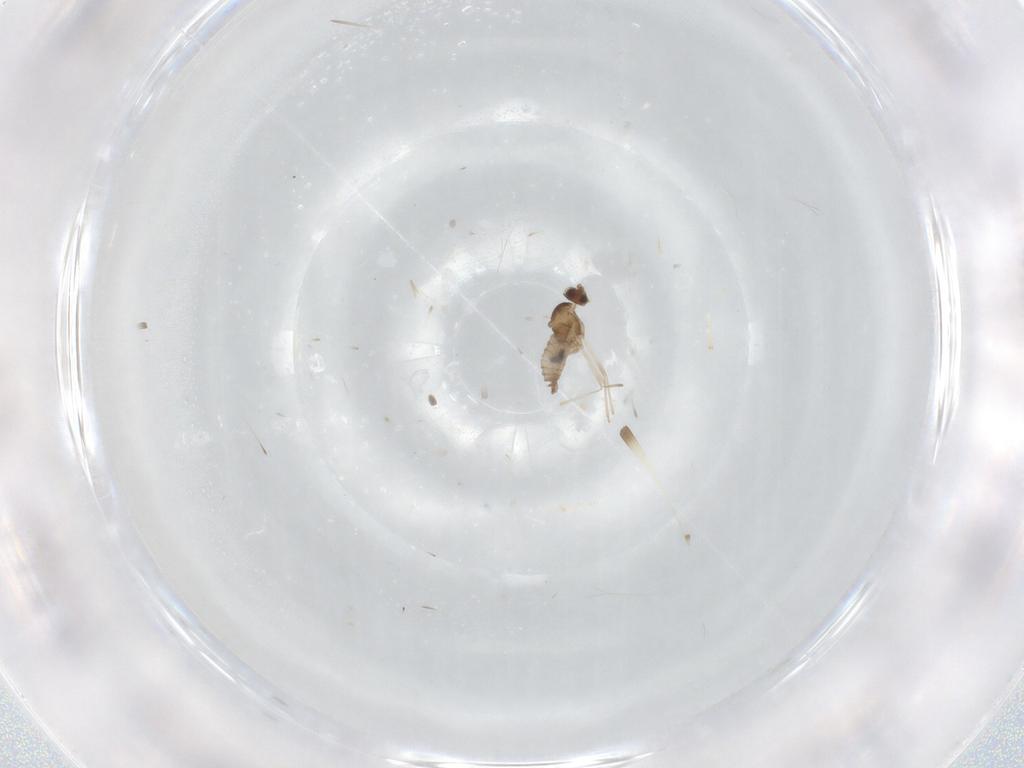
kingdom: Animalia
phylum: Arthropoda
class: Insecta
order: Diptera
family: Cecidomyiidae
